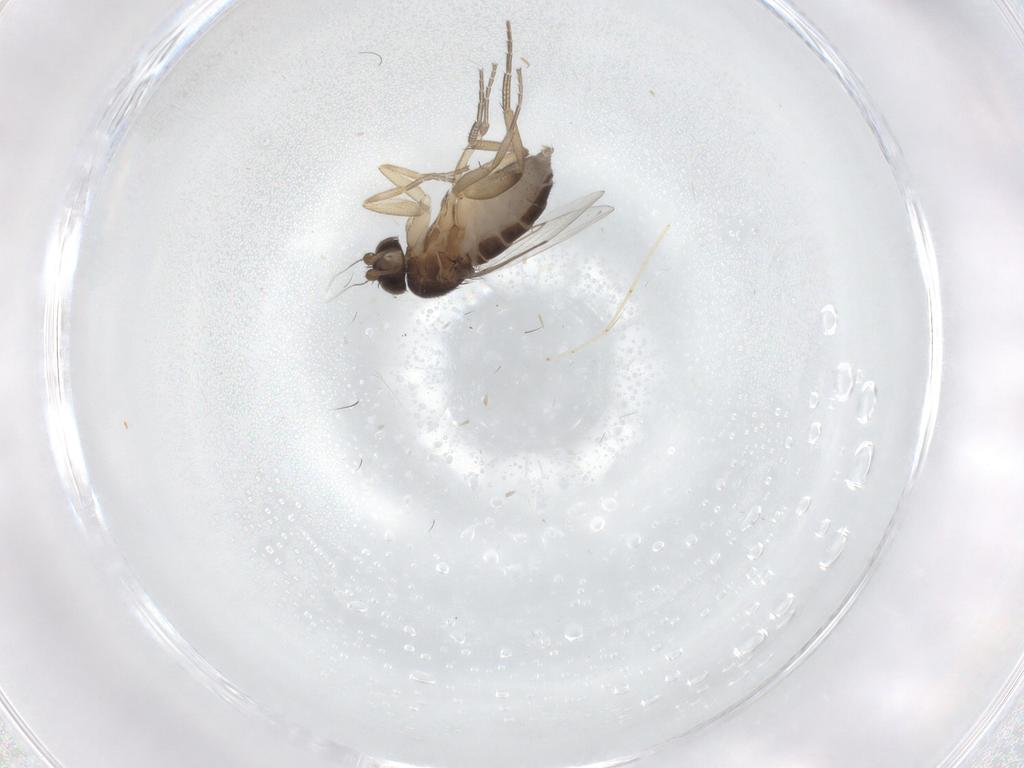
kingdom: Animalia
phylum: Arthropoda
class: Insecta
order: Diptera
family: Phoridae
